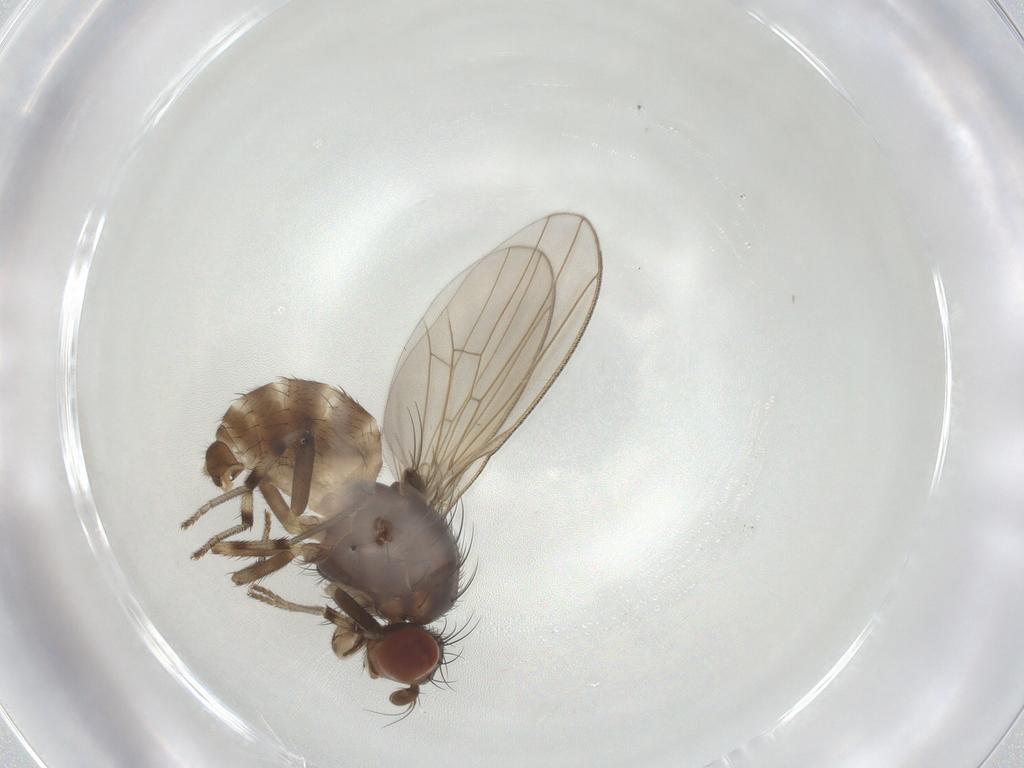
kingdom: Animalia
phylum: Arthropoda
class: Insecta
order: Diptera
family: Lauxaniidae
